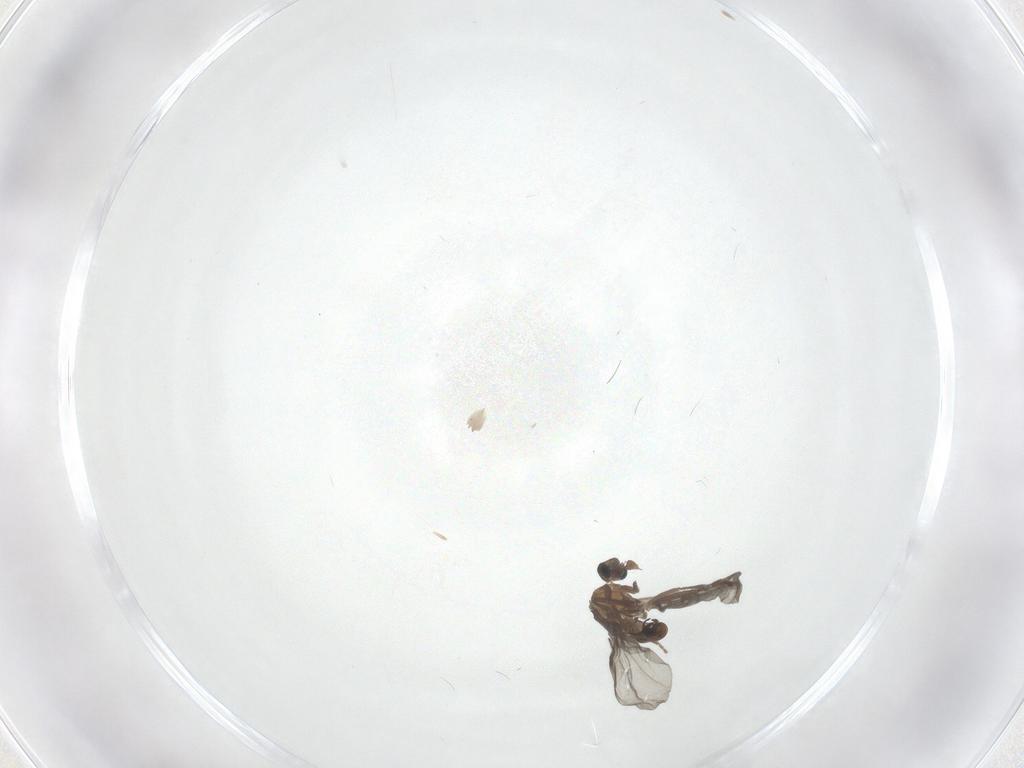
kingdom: Animalia
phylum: Arthropoda
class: Insecta
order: Diptera
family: Phoridae
